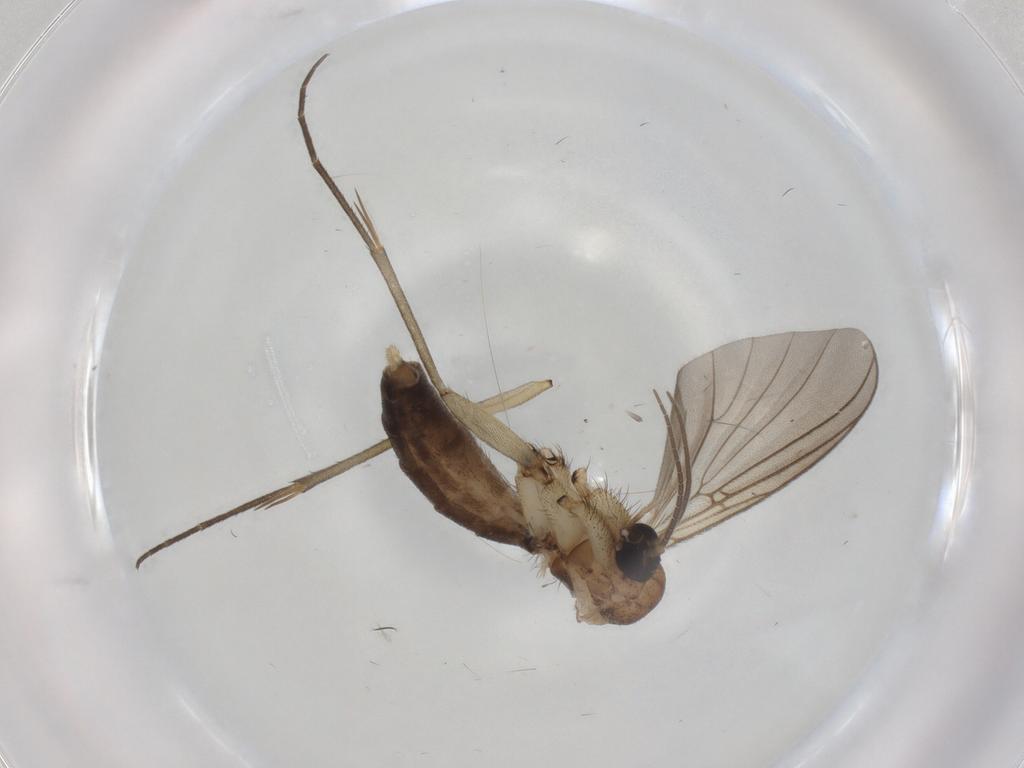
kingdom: Animalia
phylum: Arthropoda
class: Insecta
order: Diptera
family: Mycetophilidae
